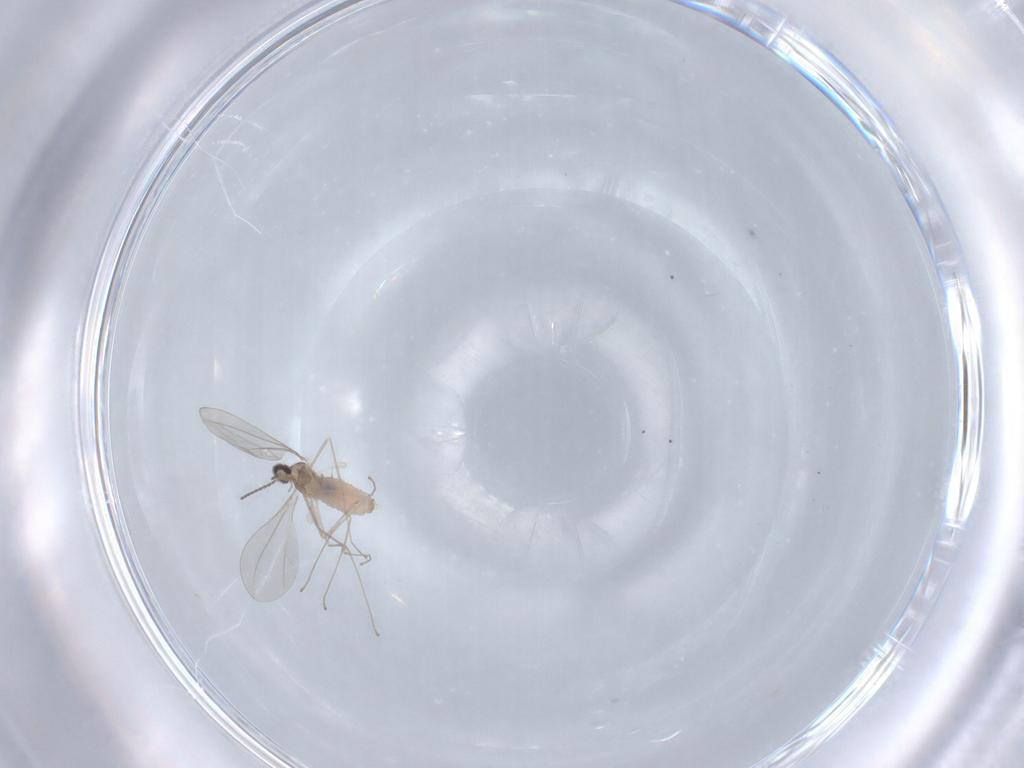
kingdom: Animalia
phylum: Arthropoda
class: Insecta
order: Diptera
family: Cecidomyiidae
